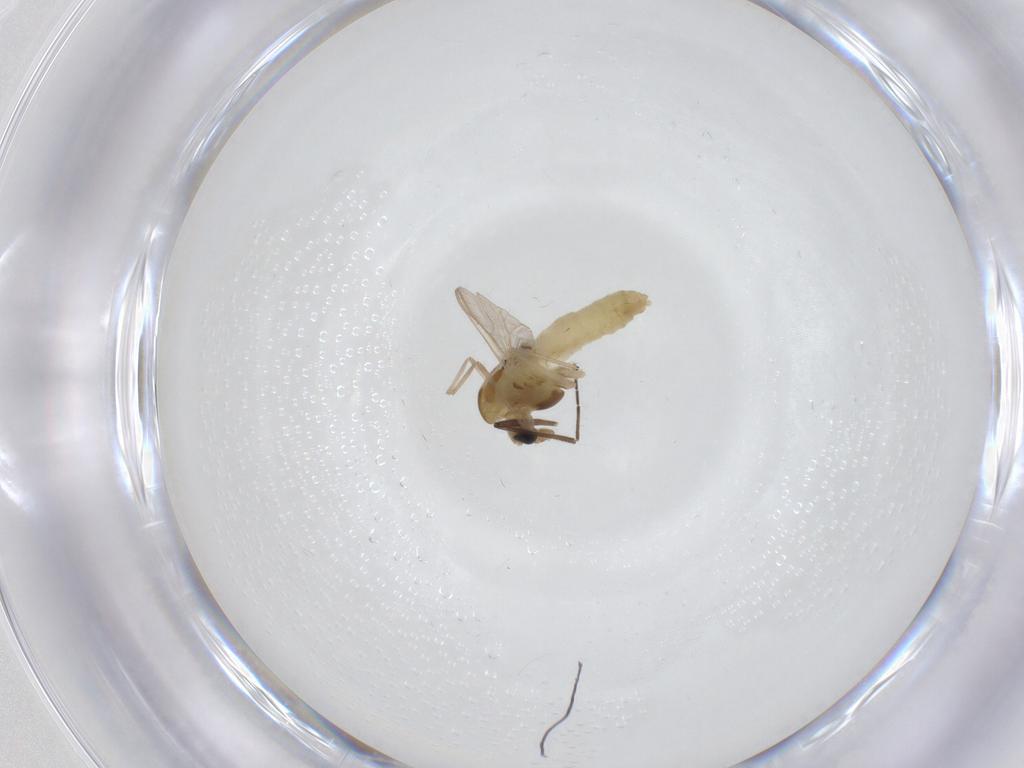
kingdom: Animalia
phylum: Arthropoda
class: Insecta
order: Diptera
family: Chironomidae
